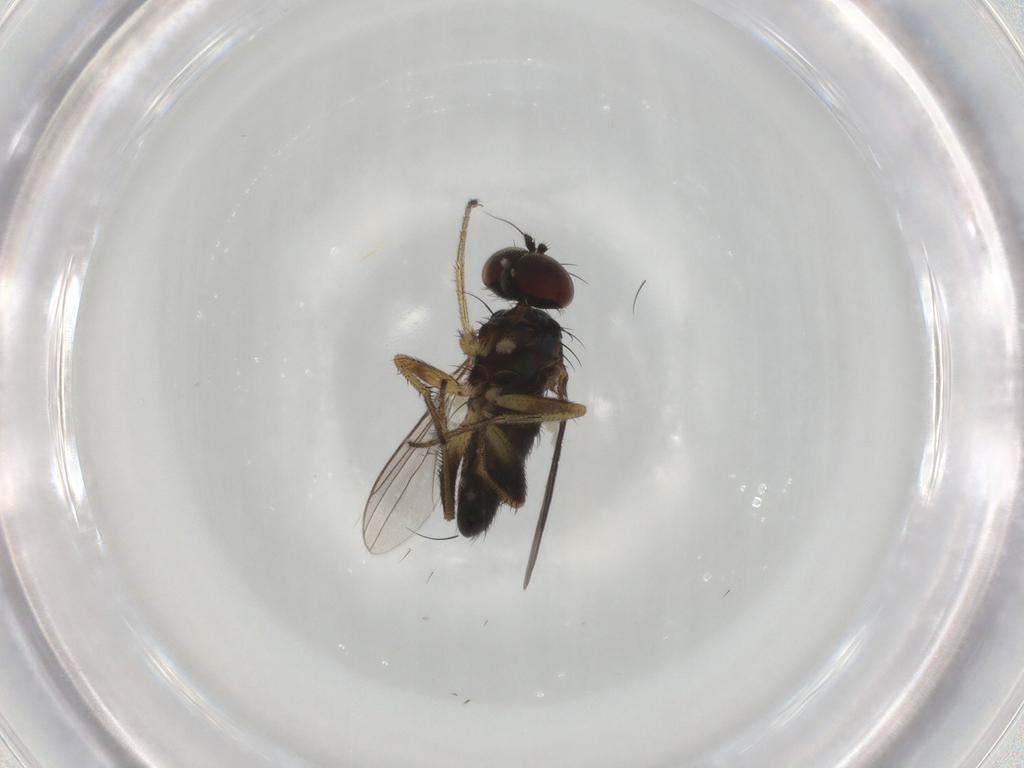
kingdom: Animalia
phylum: Arthropoda
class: Insecta
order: Diptera
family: Dolichopodidae
